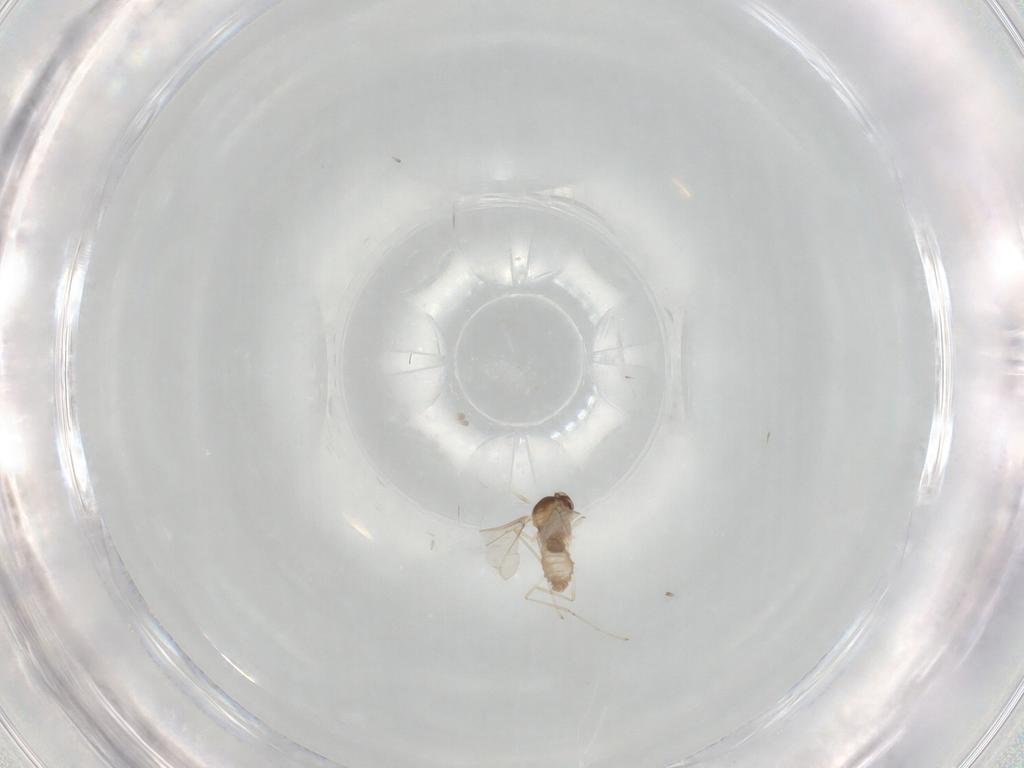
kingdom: Animalia
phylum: Arthropoda
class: Insecta
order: Diptera
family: Cecidomyiidae
